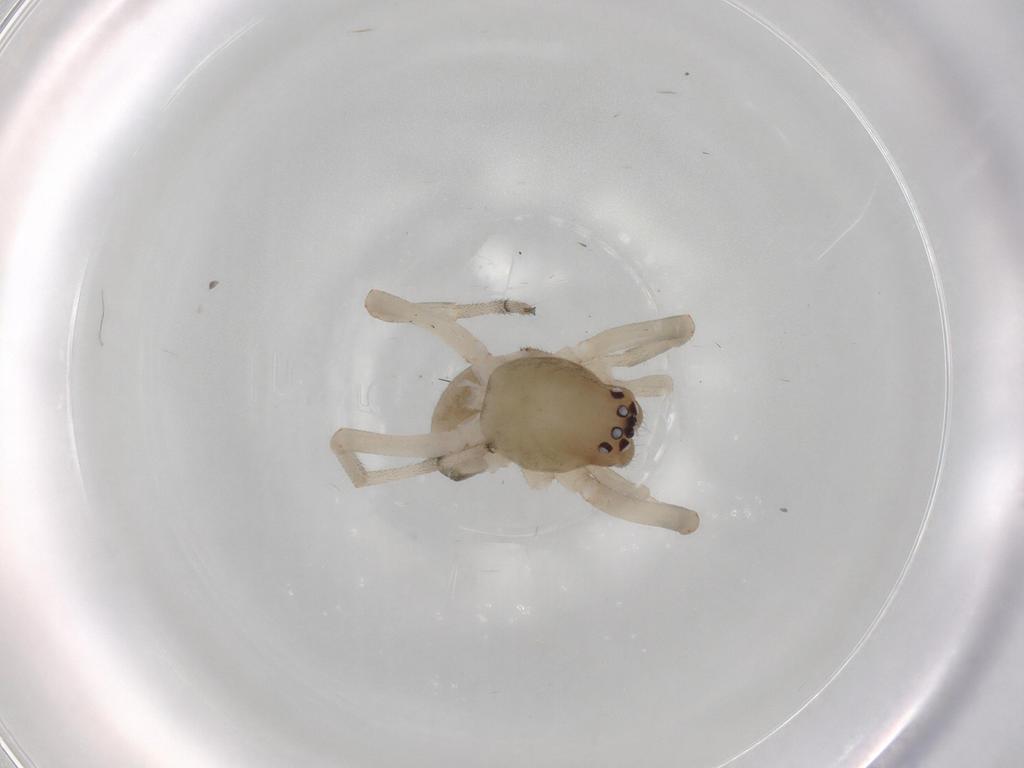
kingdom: Animalia
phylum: Arthropoda
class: Arachnida
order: Araneae
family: Trachelidae
